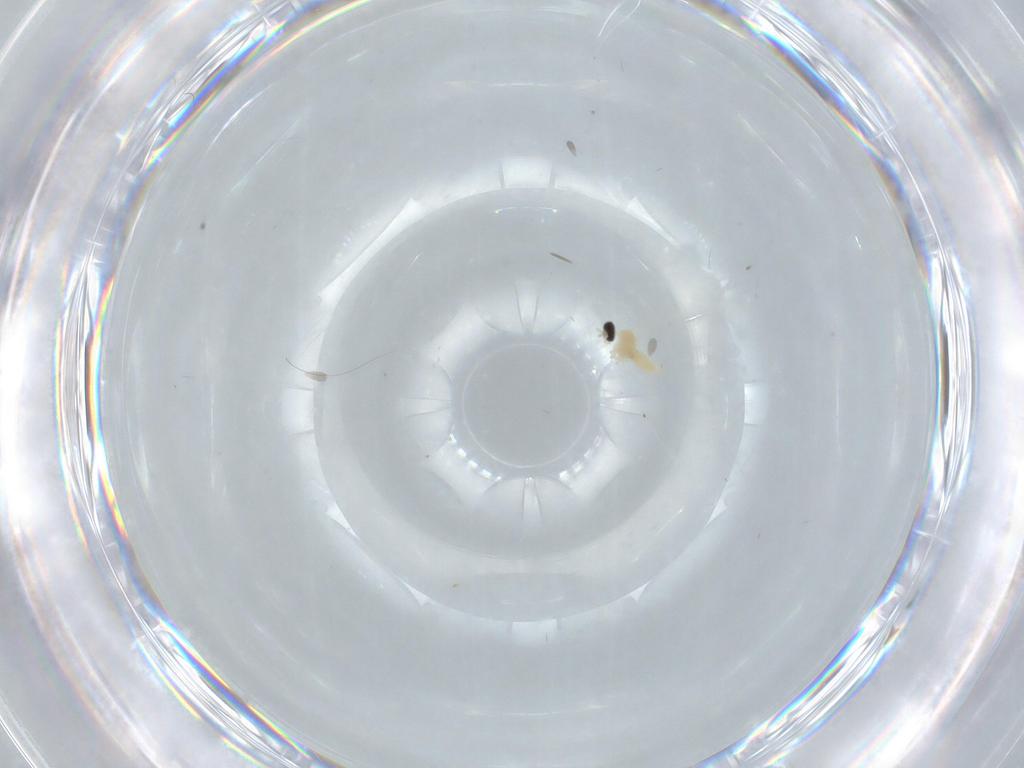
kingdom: Animalia
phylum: Arthropoda
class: Insecta
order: Diptera
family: Cecidomyiidae
